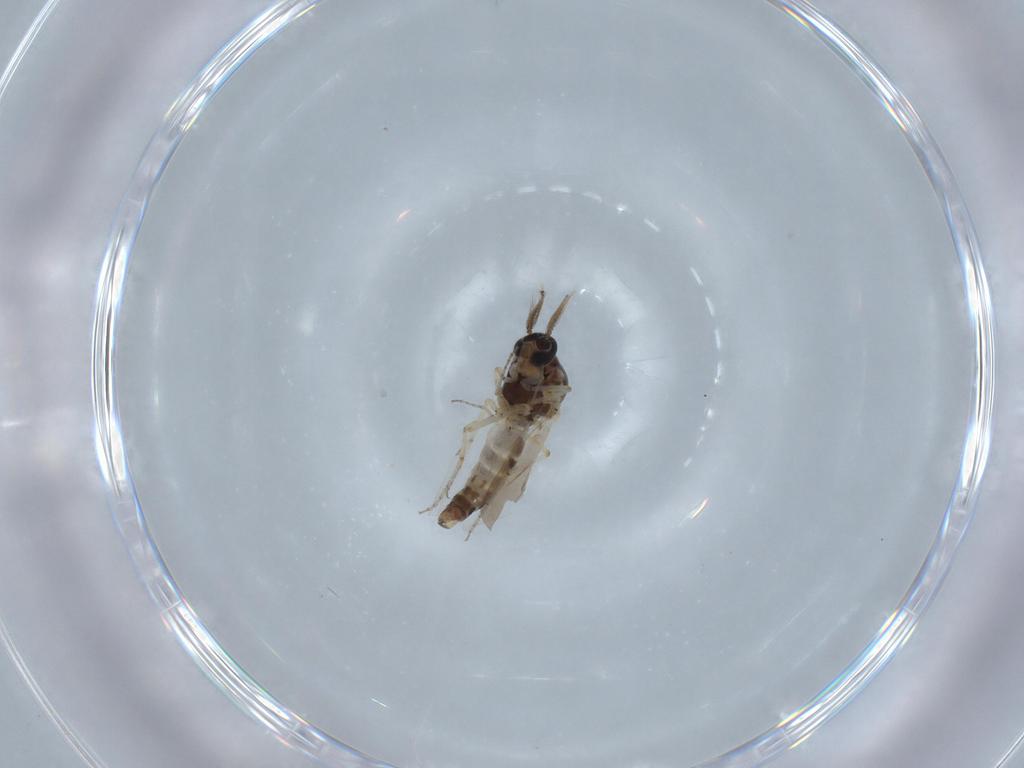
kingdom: Animalia
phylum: Arthropoda
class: Insecta
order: Diptera
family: Ceratopogonidae
